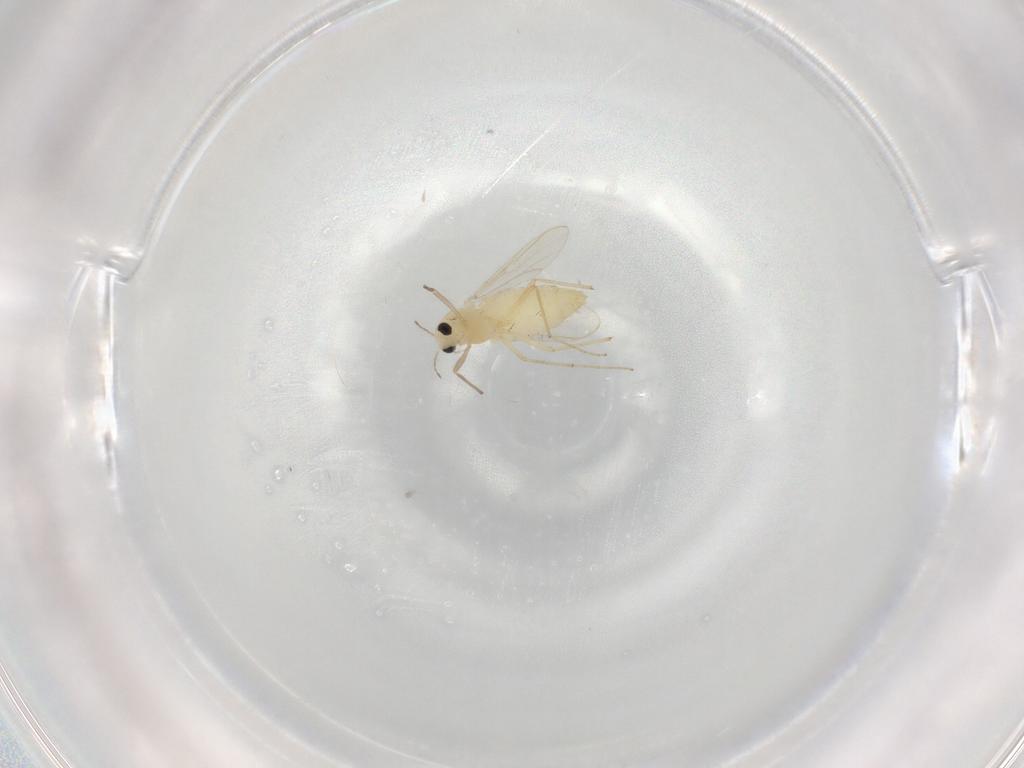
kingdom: Animalia
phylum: Arthropoda
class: Insecta
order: Diptera
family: Chironomidae
